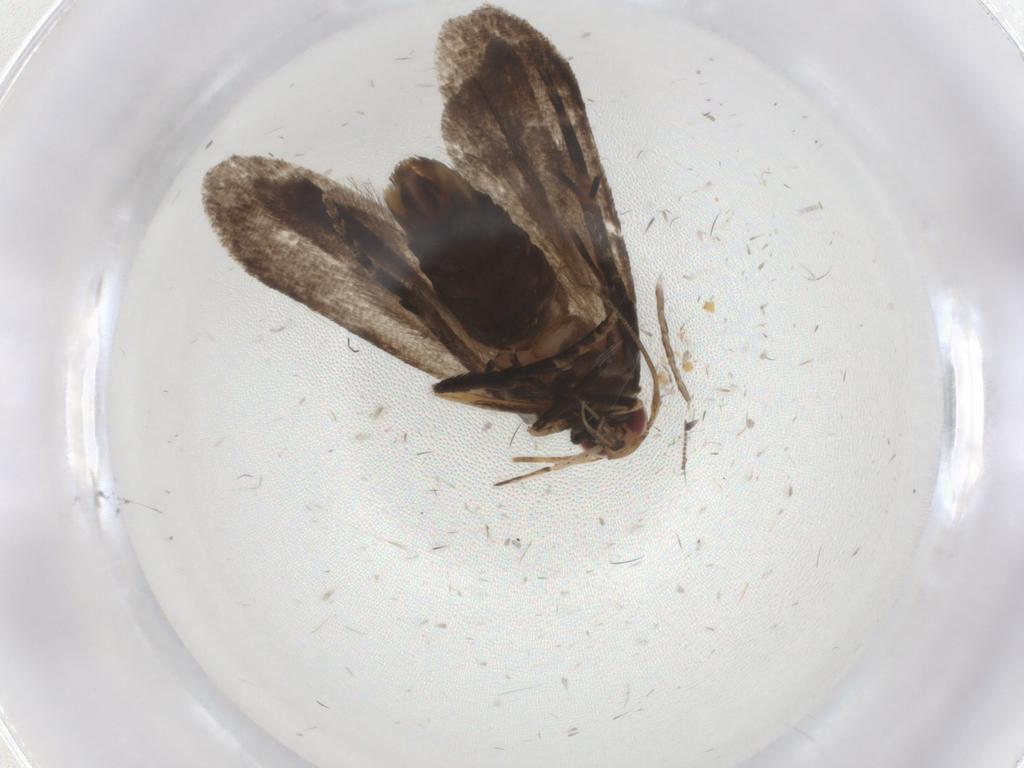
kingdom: Animalia
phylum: Arthropoda
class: Insecta
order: Lepidoptera
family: Gelechiidae
